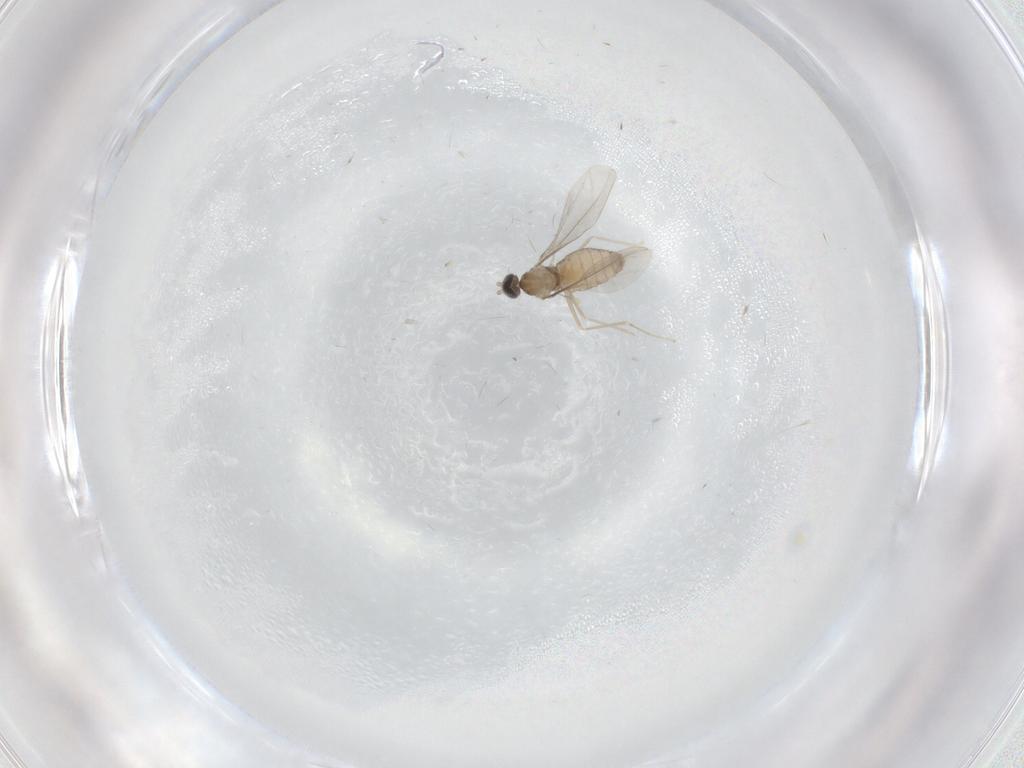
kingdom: Animalia
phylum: Arthropoda
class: Insecta
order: Diptera
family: Cecidomyiidae
